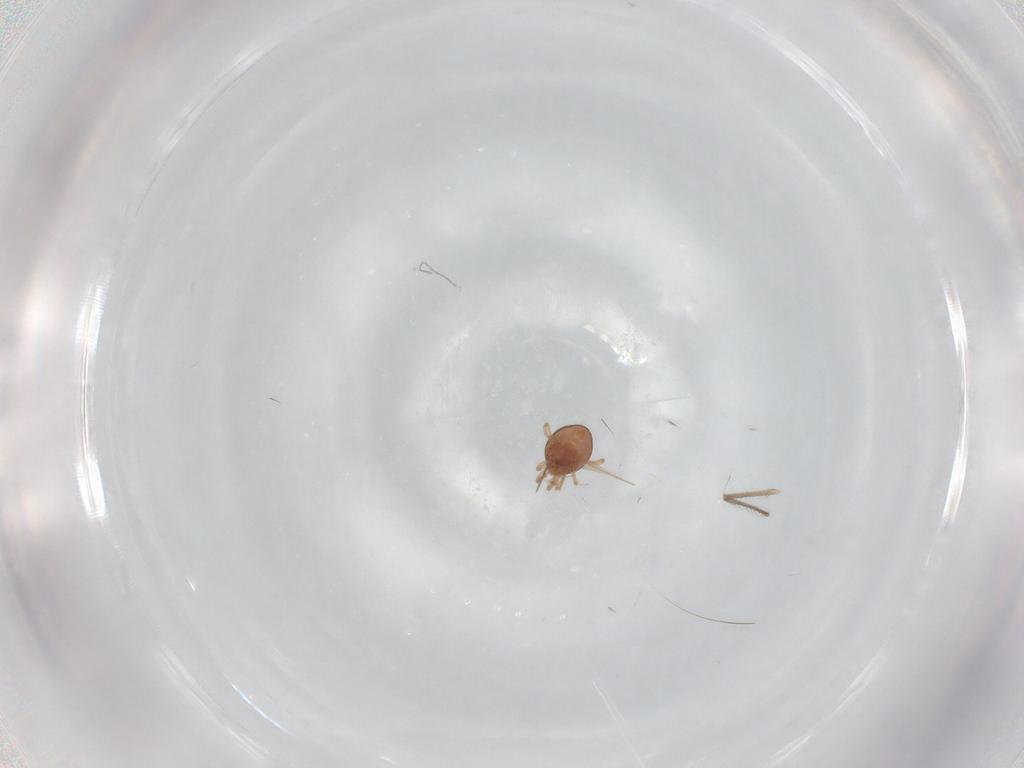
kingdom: Animalia
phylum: Arthropoda
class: Arachnida
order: Mesostigmata
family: Phytoseiidae
